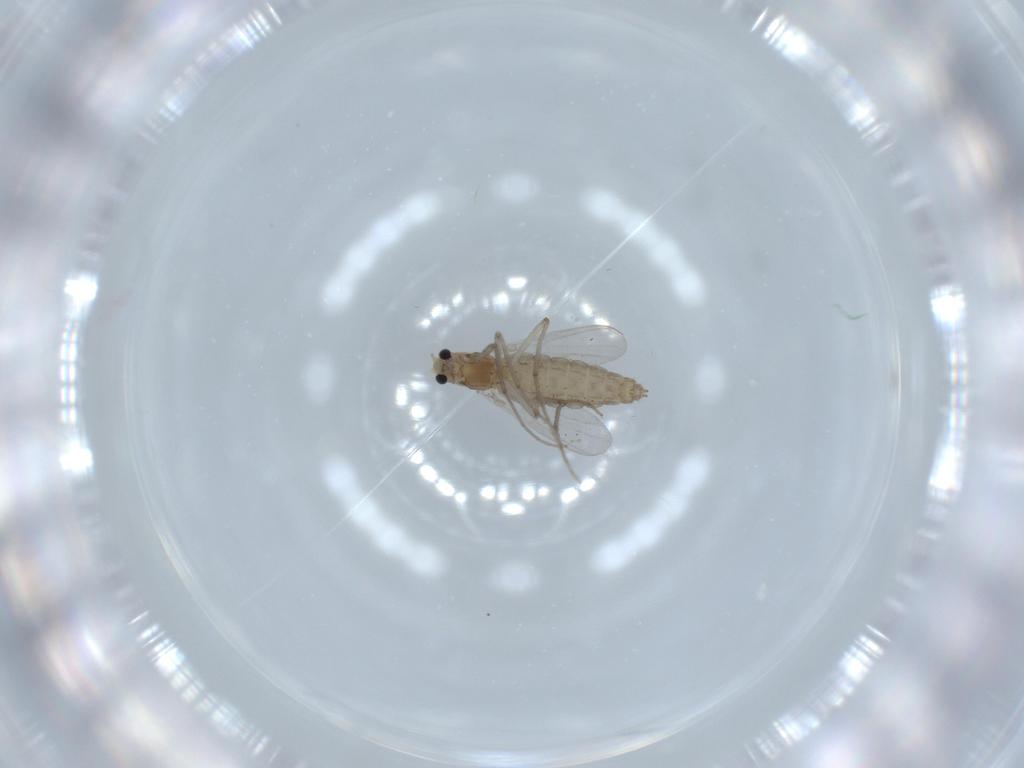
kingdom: Animalia
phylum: Arthropoda
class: Insecta
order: Diptera
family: Chironomidae
